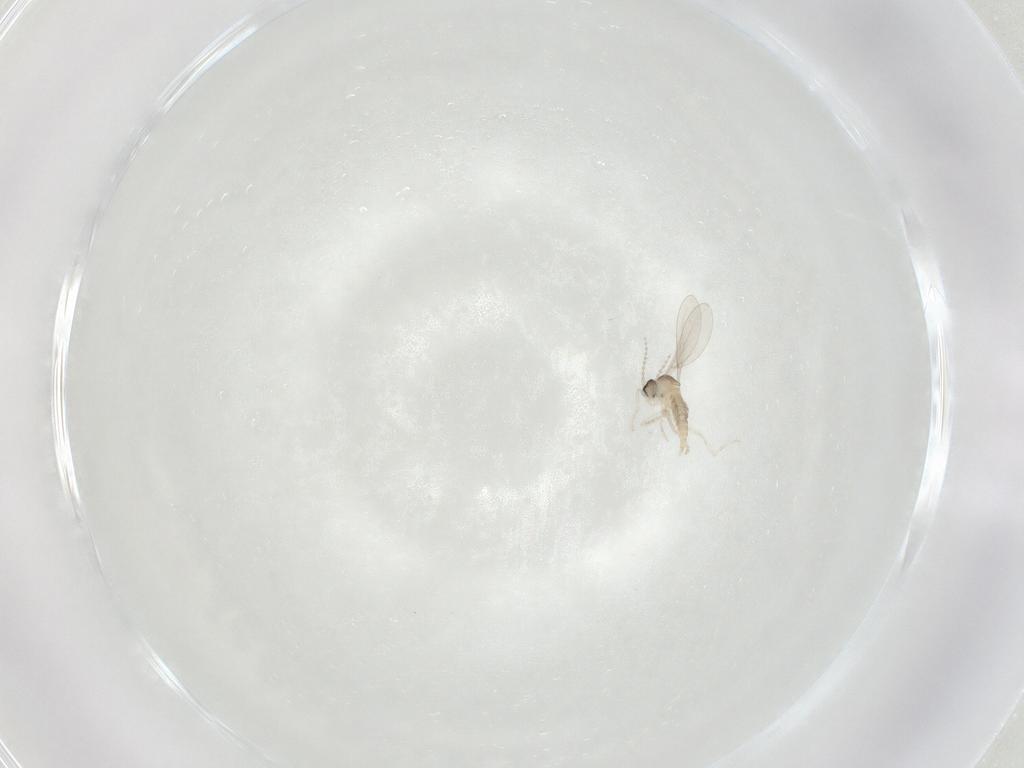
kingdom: Animalia
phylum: Arthropoda
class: Insecta
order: Diptera
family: Cecidomyiidae
